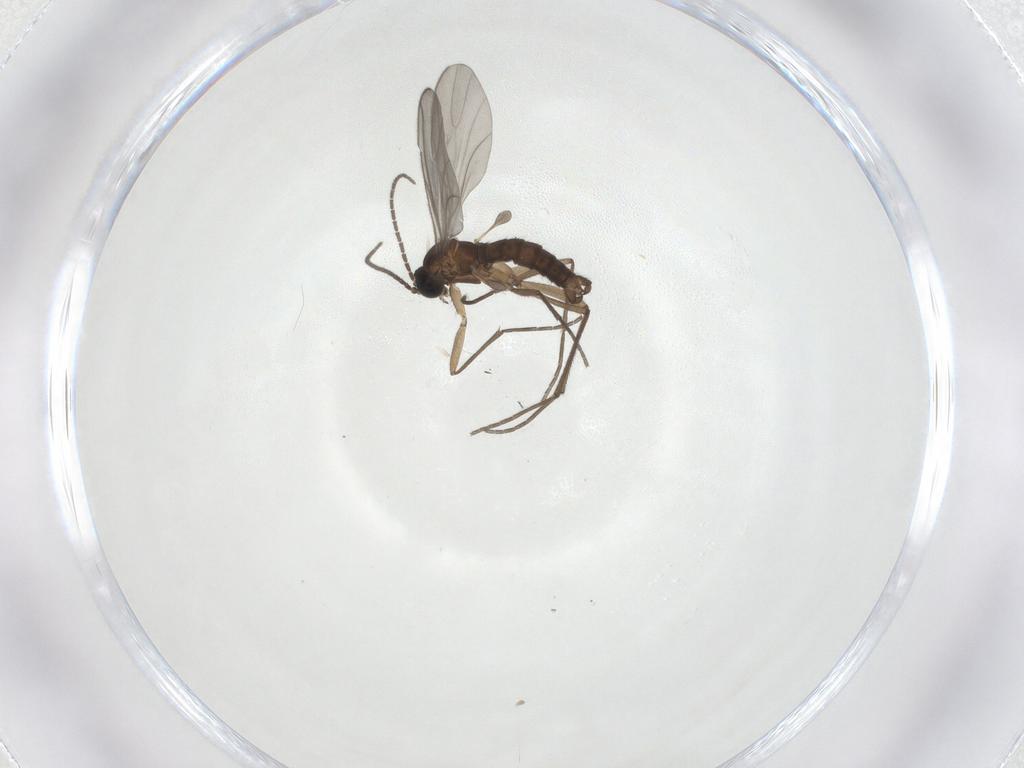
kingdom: Animalia
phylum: Arthropoda
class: Insecta
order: Diptera
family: Sciaridae
